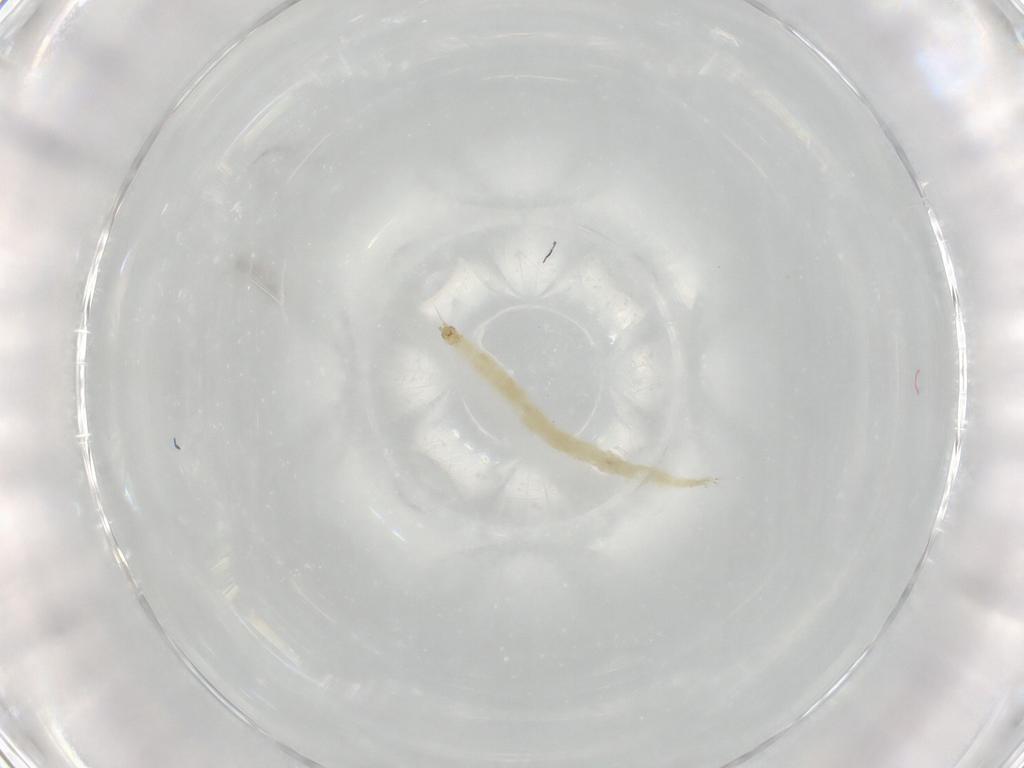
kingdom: Animalia
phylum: Arthropoda
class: Insecta
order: Diptera
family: Chironomidae
